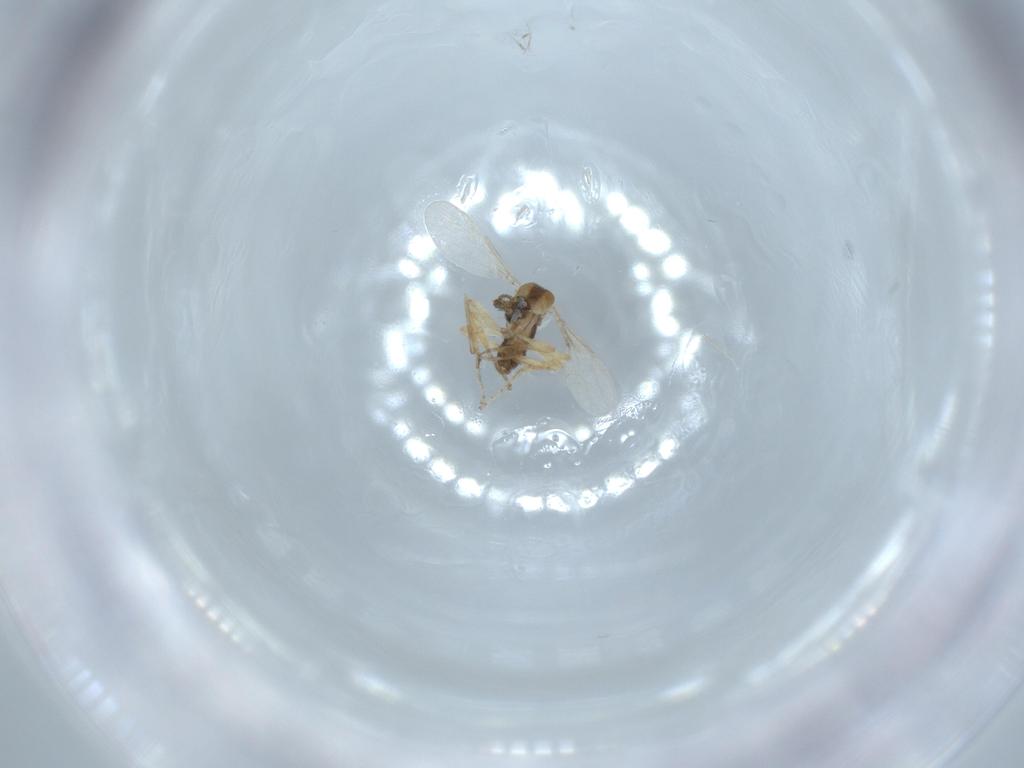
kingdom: Animalia
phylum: Arthropoda
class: Insecta
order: Diptera
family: Ceratopogonidae
